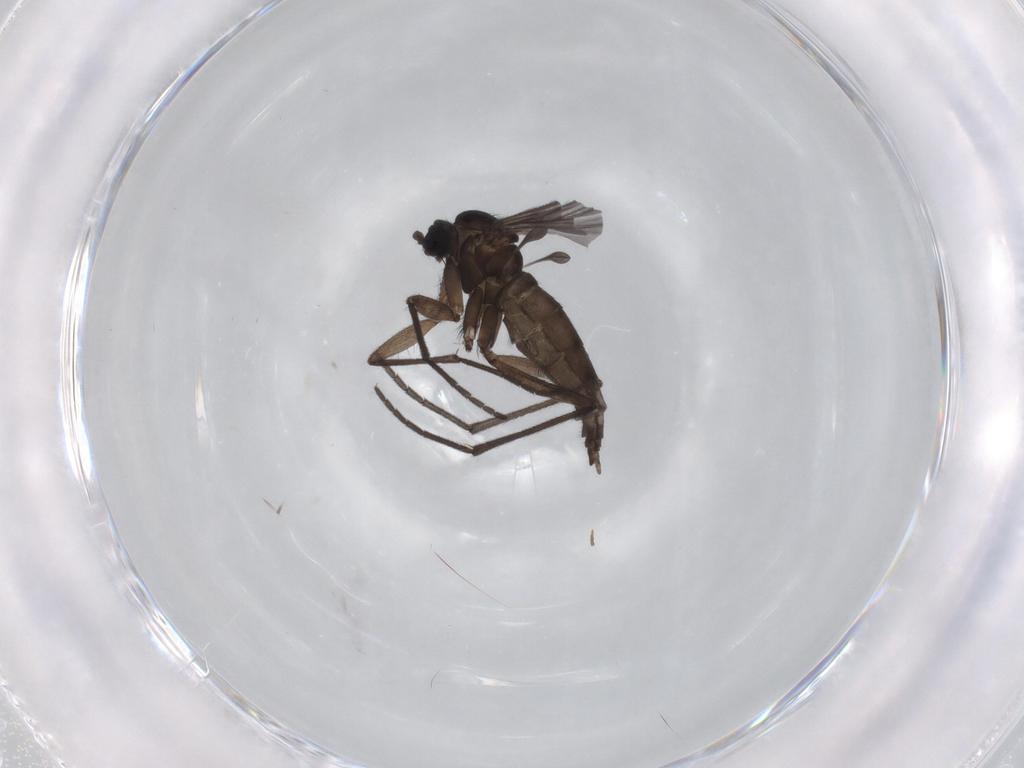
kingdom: Animalia
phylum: Arthropoda
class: Insecta
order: Diptera
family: Sciaridae
